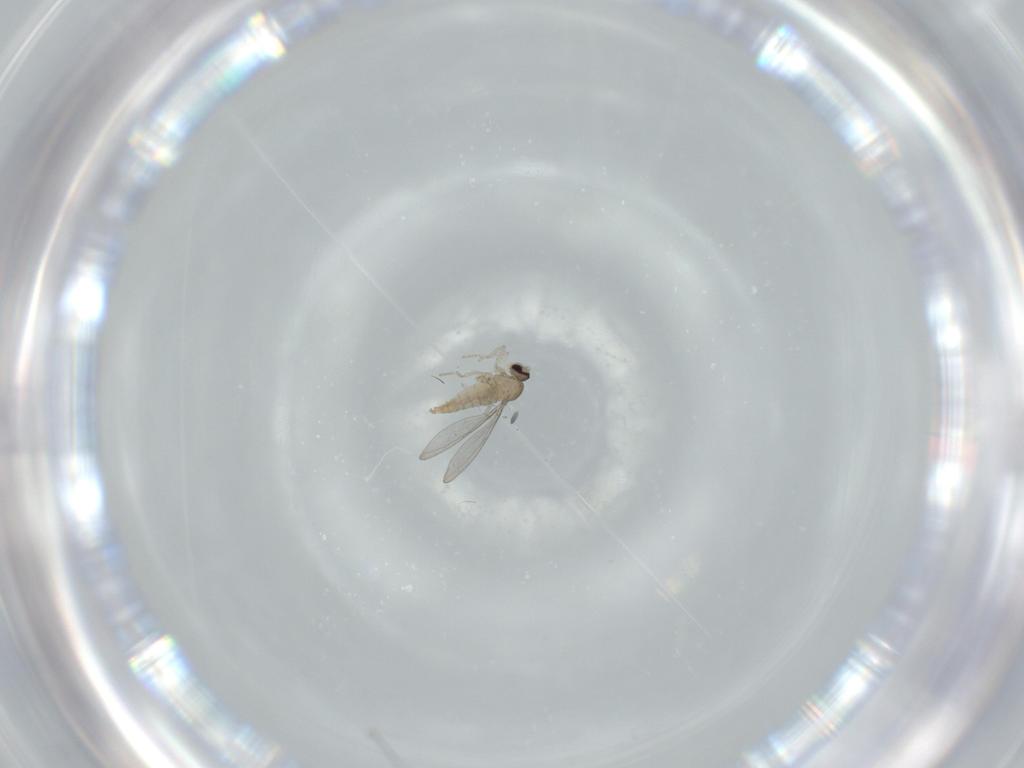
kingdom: Animalia
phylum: Arthropoda
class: Insecta
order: Diptera
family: Cecidomyiidae
